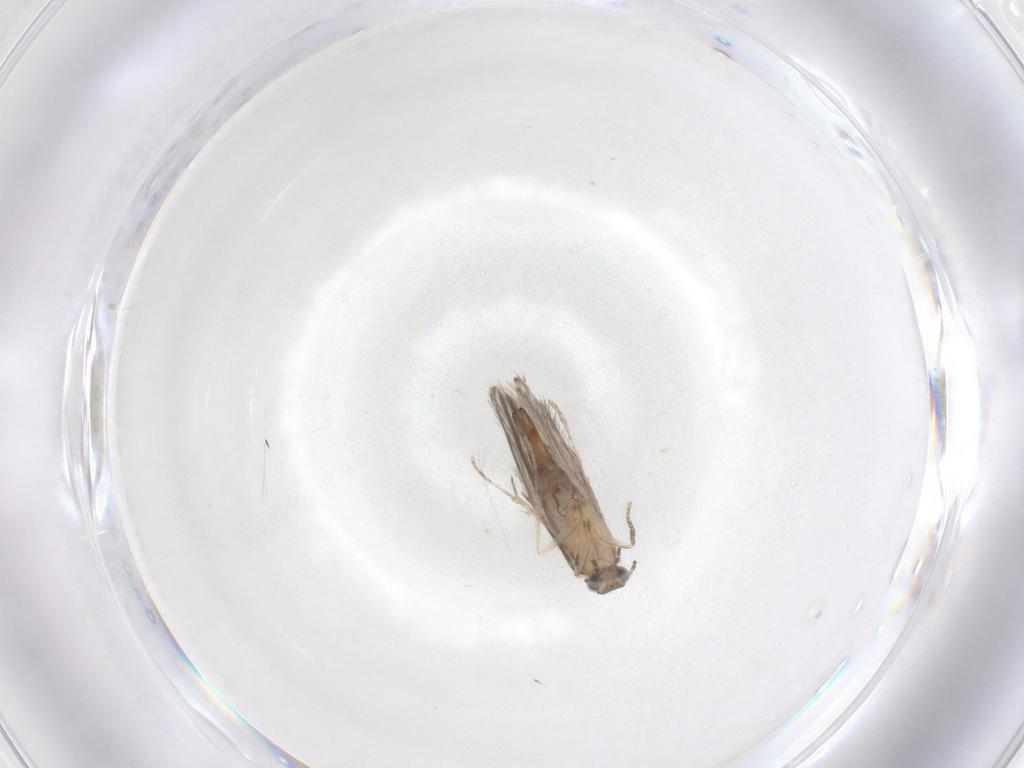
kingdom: Animalia
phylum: Arthropoda
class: Insecta
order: Trichoptera
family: Hydroptilidae
